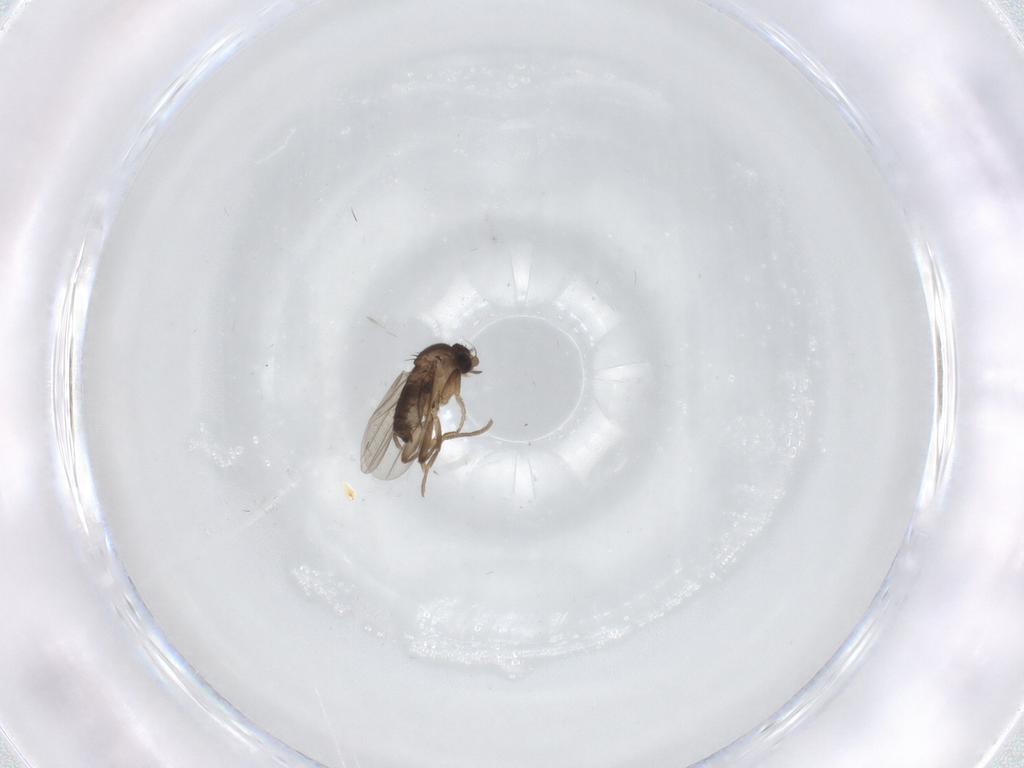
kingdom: Animalia
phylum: Arthropoda
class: Insecta
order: Diptera
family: Phoridae
